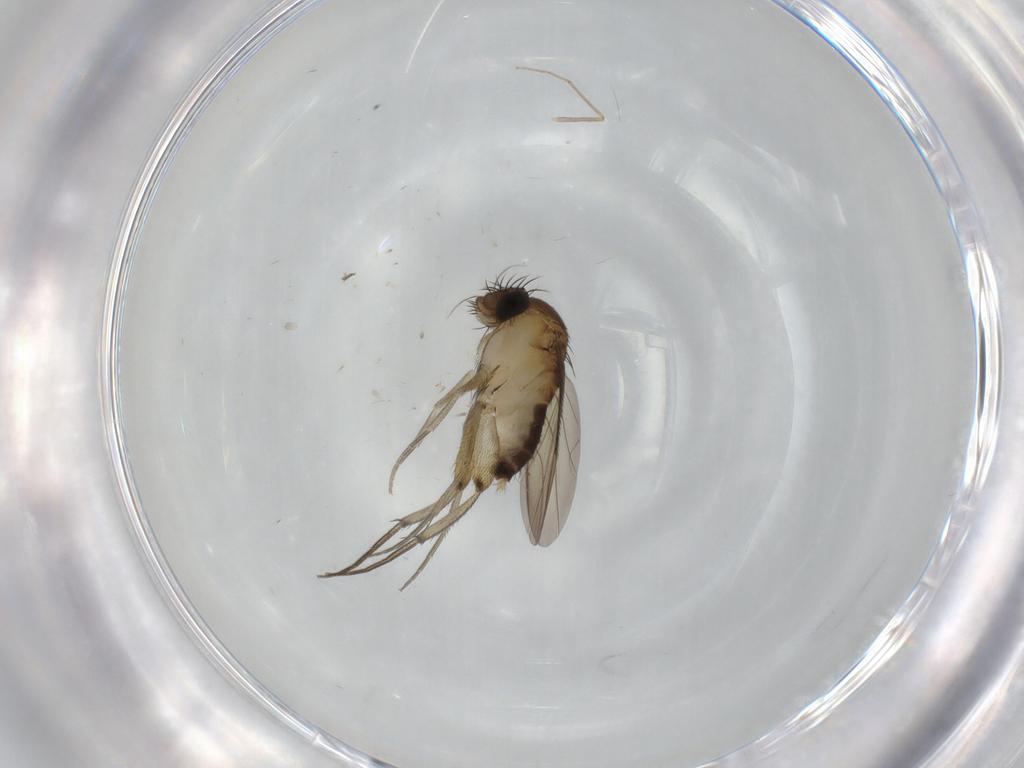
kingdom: Animalia
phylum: Arthropoda
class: Insecta
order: Diptera
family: Phoridae
